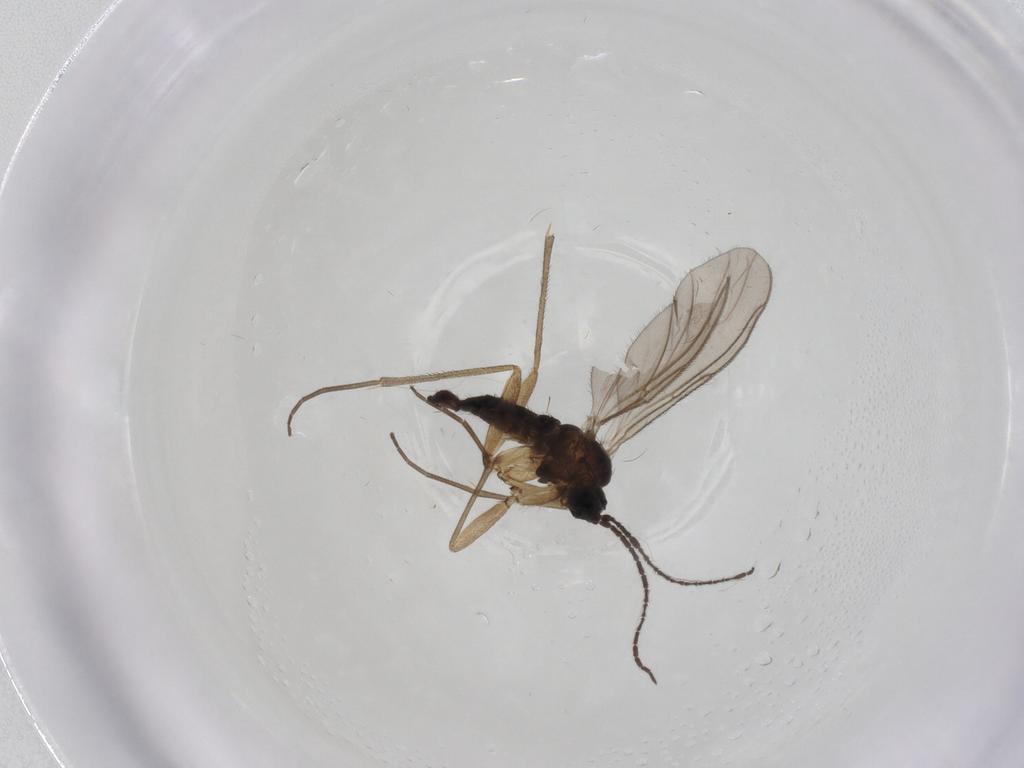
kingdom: Animalia
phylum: Arthropoda
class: Insecta
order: Diptera
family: Sciaridae
